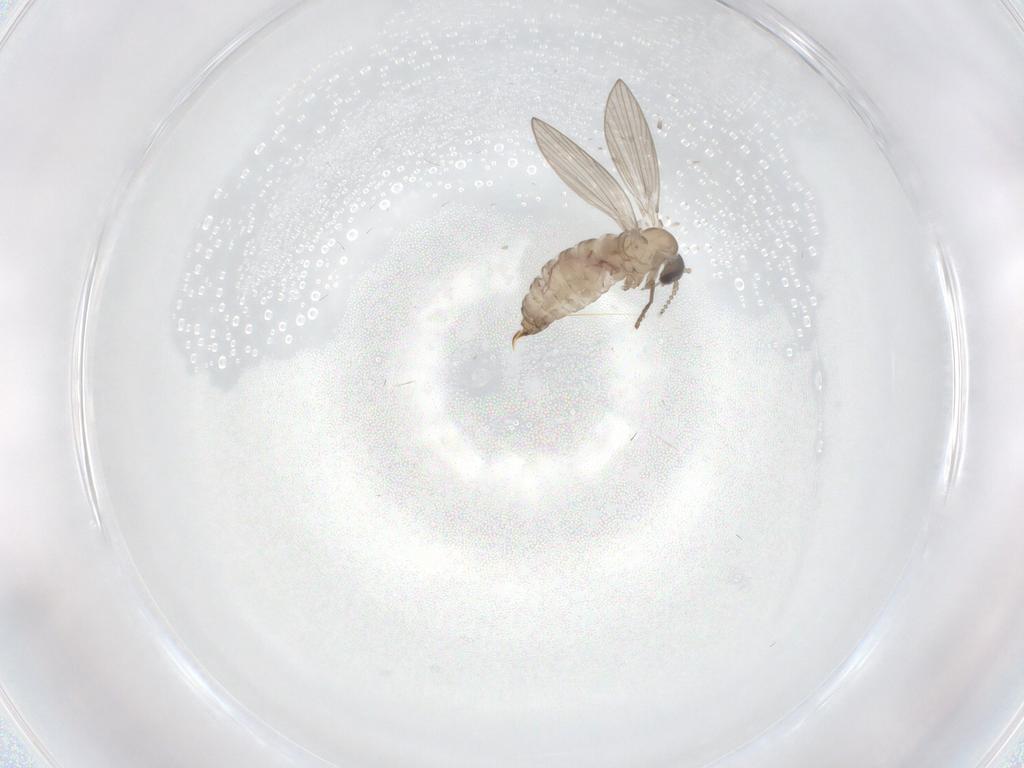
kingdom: Animalia
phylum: Arthropoda
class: Insecta
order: Diptera
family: Psychodidae
